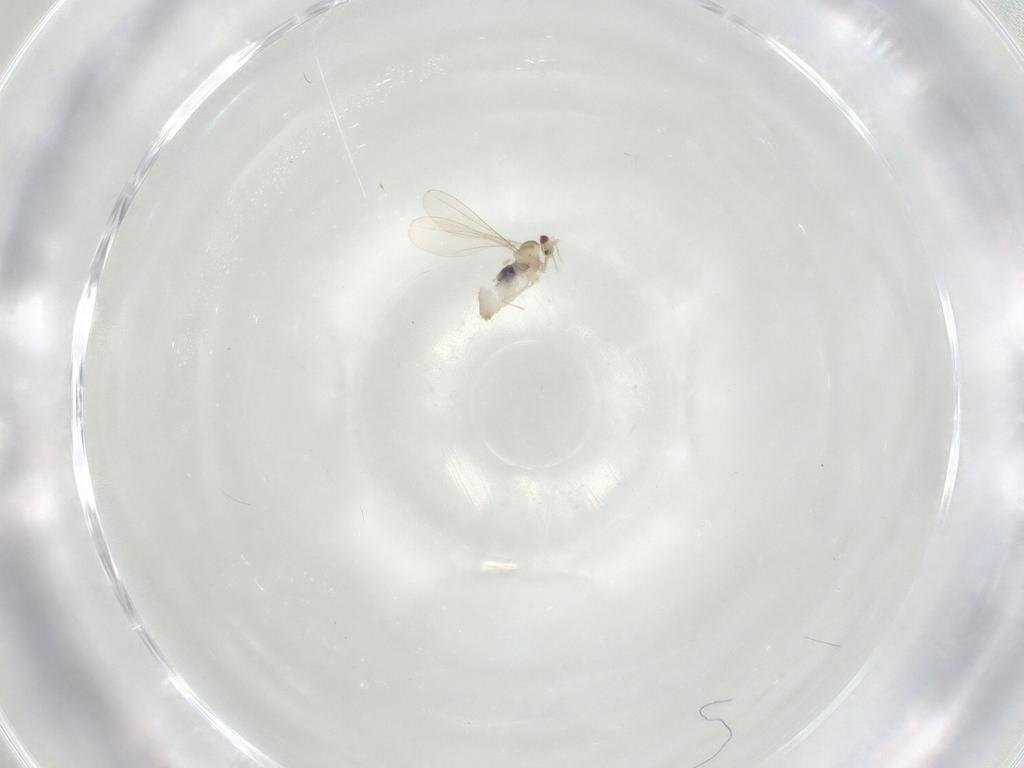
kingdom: Animalia
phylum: Arthropoda
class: Insecta
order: Diptera
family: Cecidomyiidae
